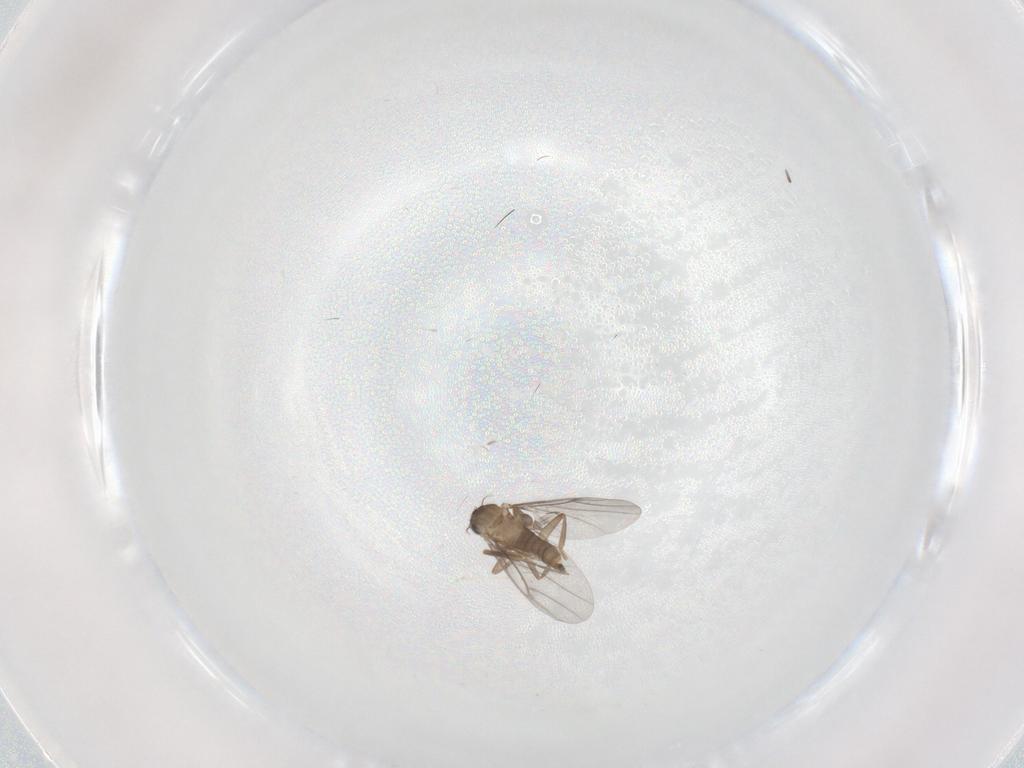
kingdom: Animalia
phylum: Arthropoda
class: Insecta
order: Diptera
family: Cecidomyiidae
